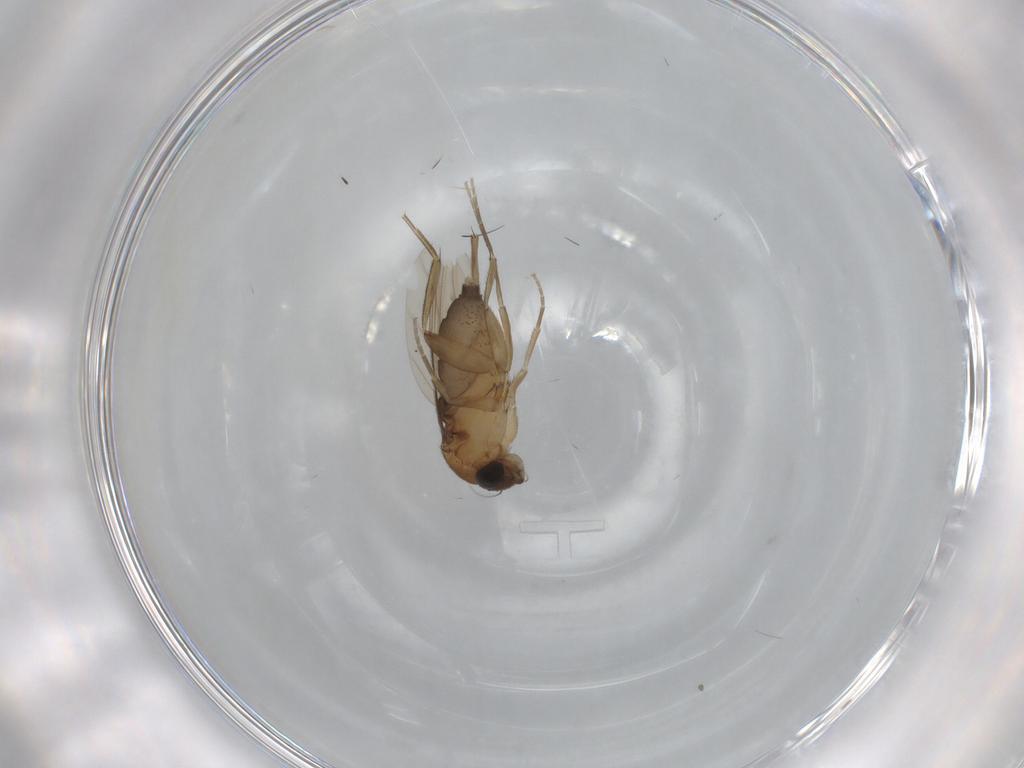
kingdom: Animalia
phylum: Arthropoda
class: Insecta
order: Diptera
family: Phoridae
